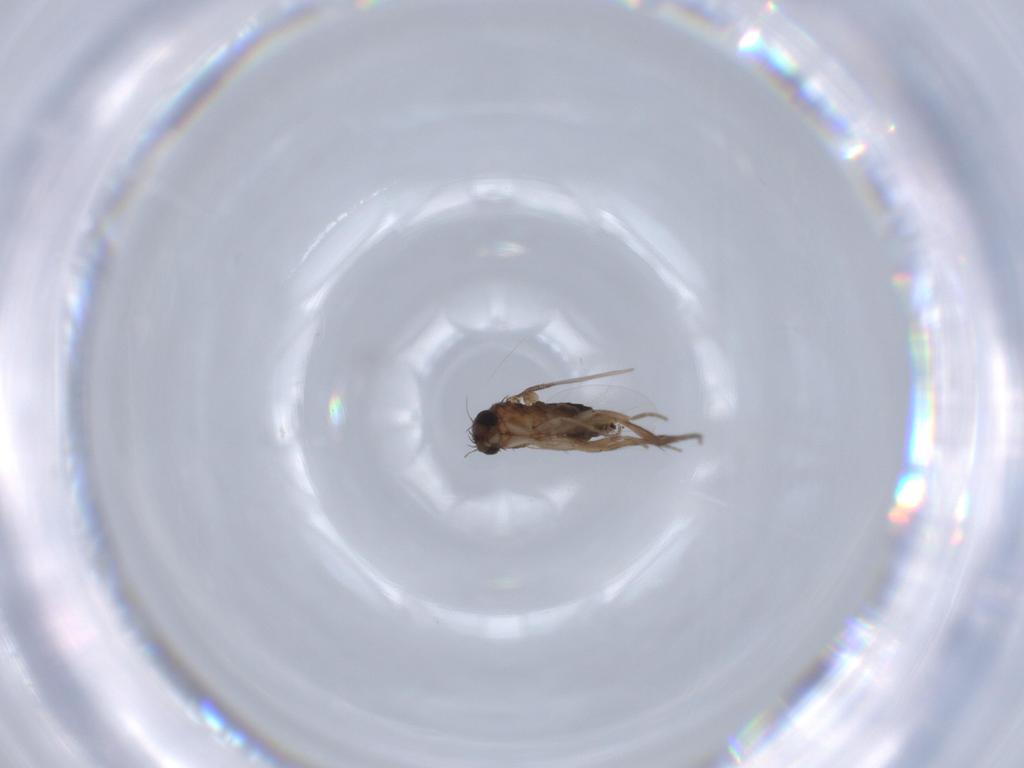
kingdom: Animalia
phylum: Arthropoda
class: Insecta
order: Diptera
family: Phoridae
